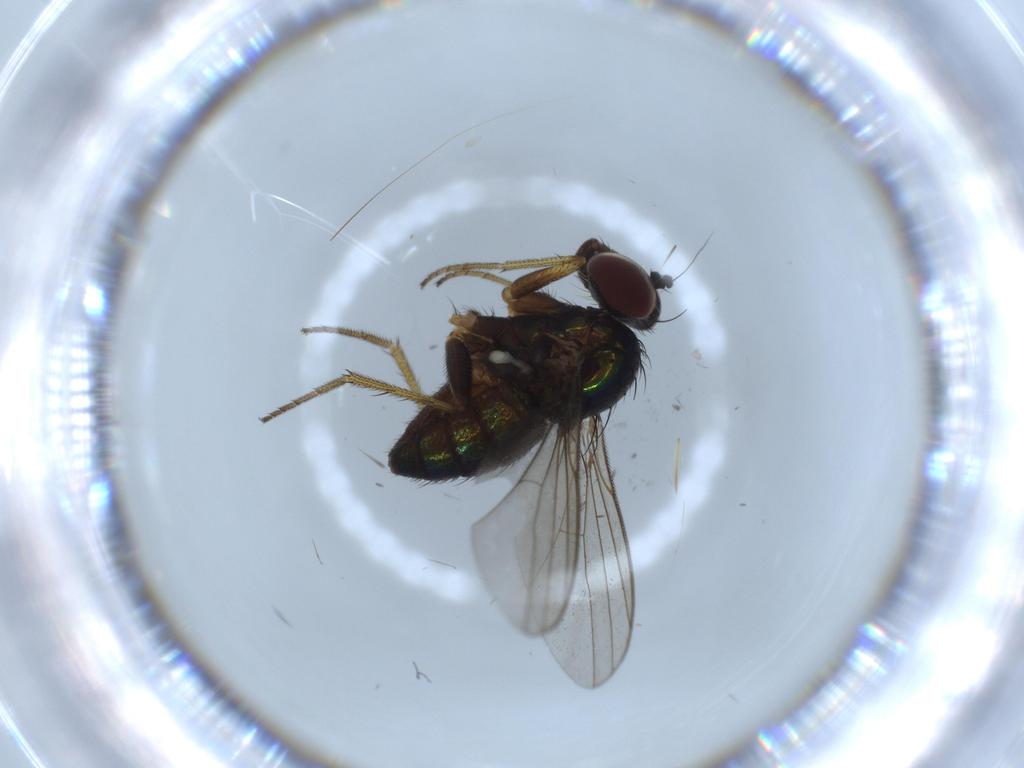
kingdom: Animalia
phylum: Arthropoda
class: Insecta
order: Diptera
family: Dolichopodidae
